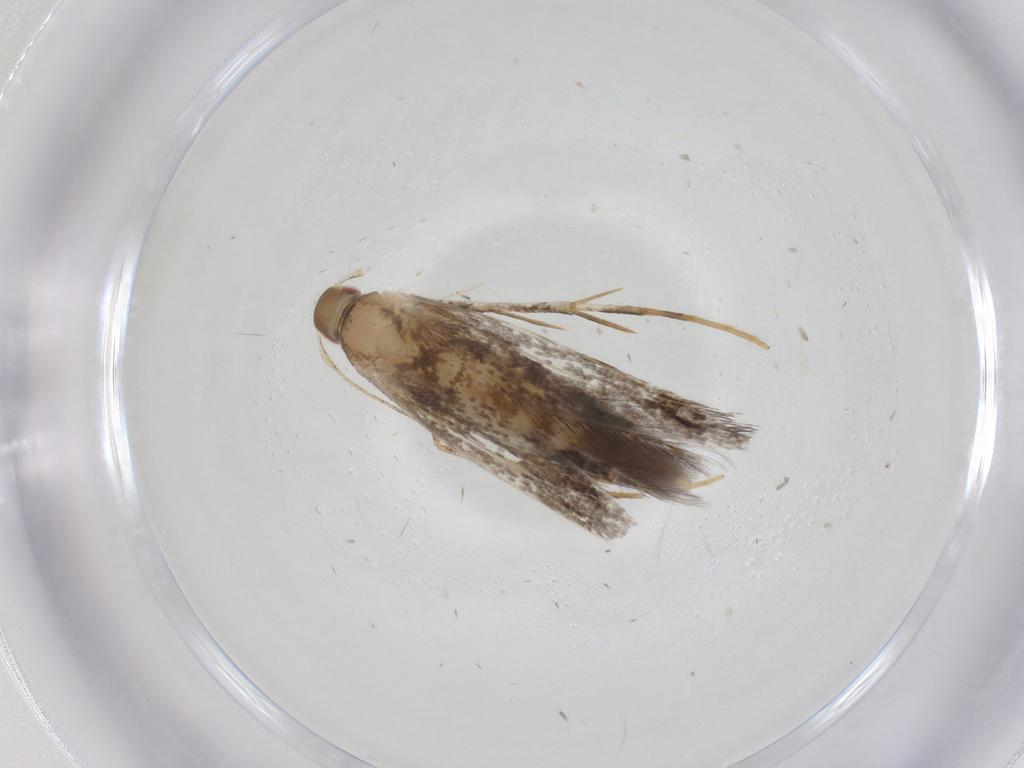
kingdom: Animalia
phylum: Arthropoda
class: Insecta
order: Lepidoptera
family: Cosmopterigidae
